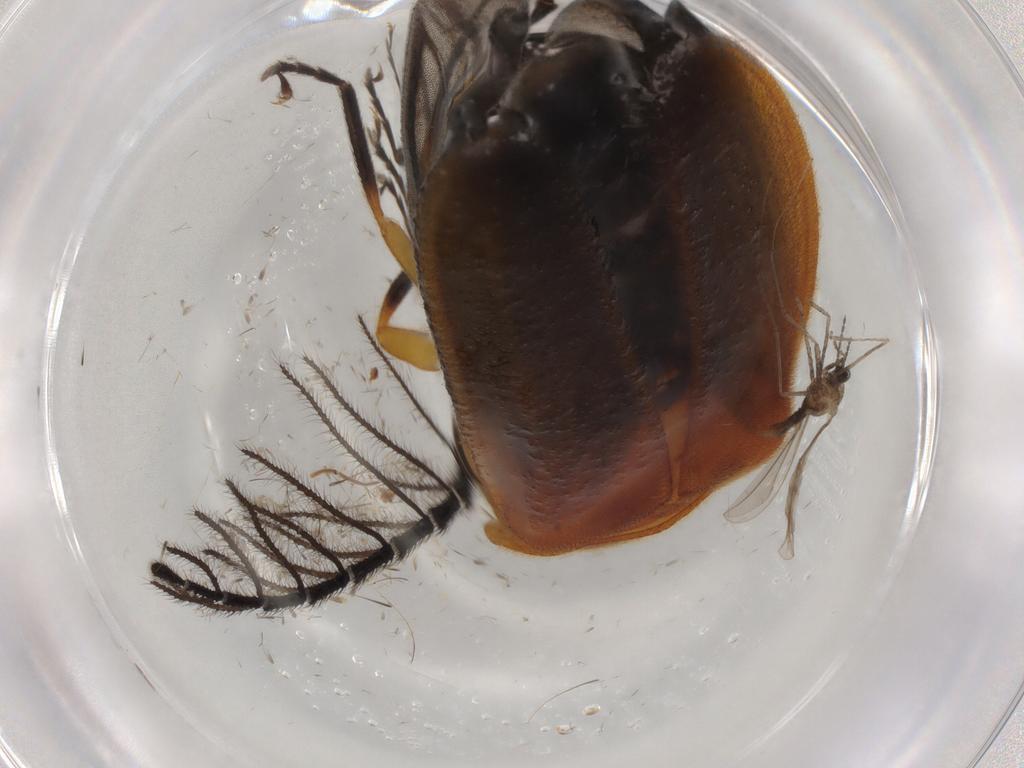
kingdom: Animalia
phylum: Arthropoda
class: Insecta
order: Diptera
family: Cecidomyiidae
